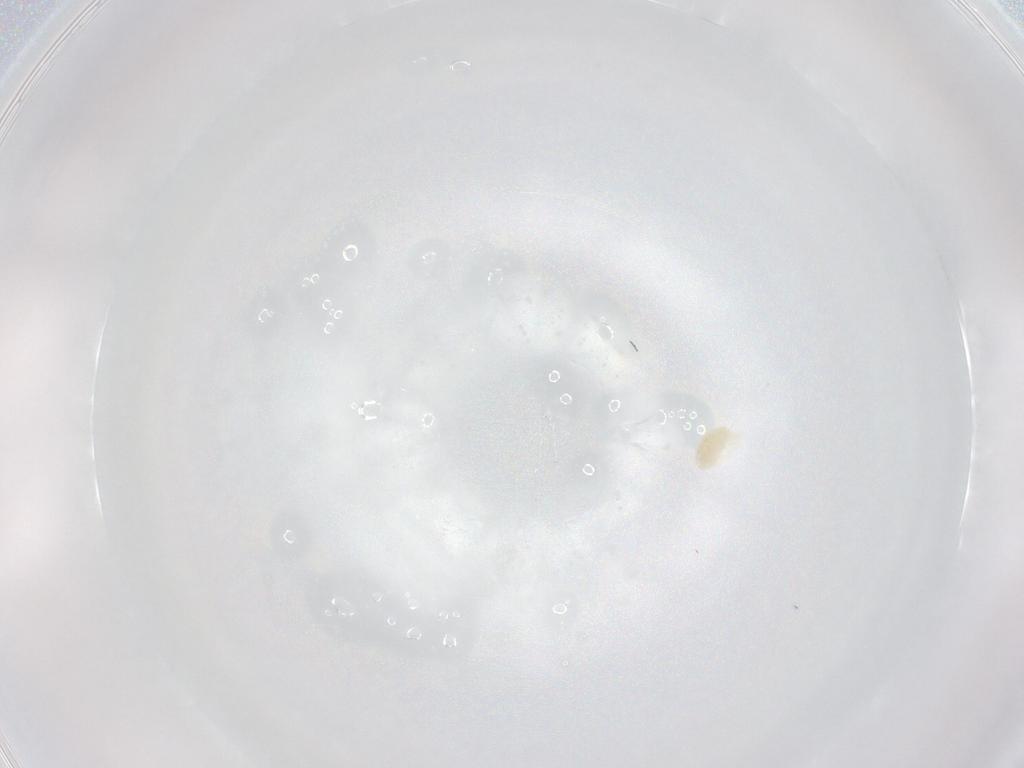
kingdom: Animalia
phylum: Arthropoda
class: Arachnida
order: Trombidiformes
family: Eupodidae
